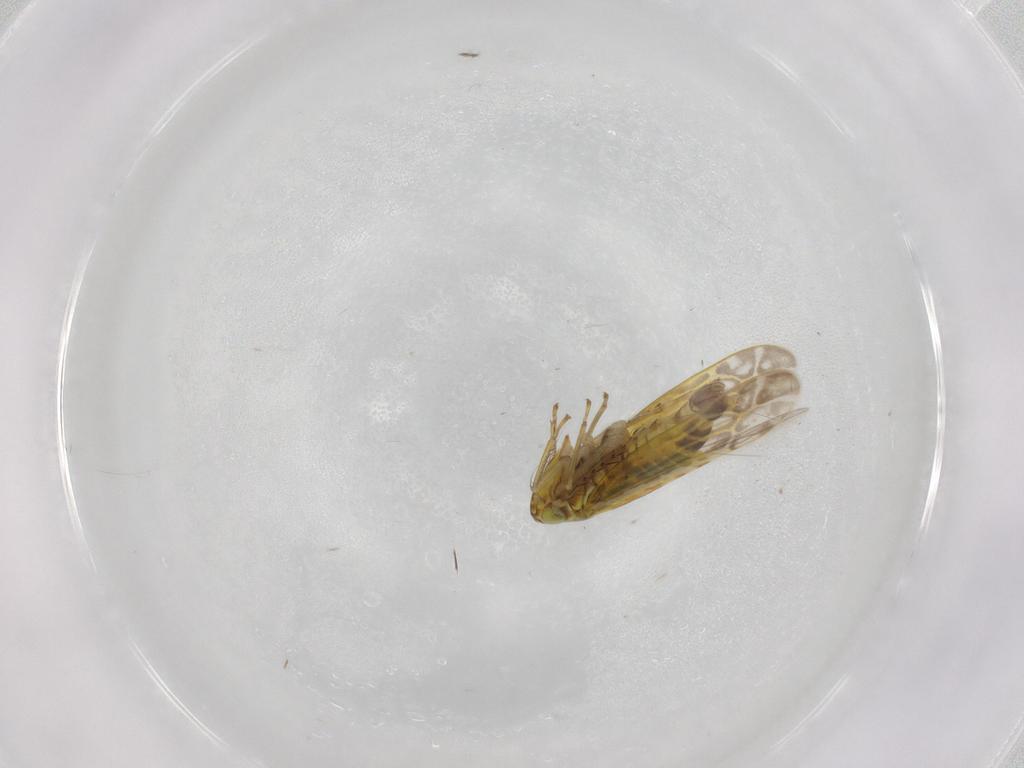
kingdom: Animalia
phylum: Arthropoda
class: Insecta
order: Hemiptera
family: Cicadellidae
